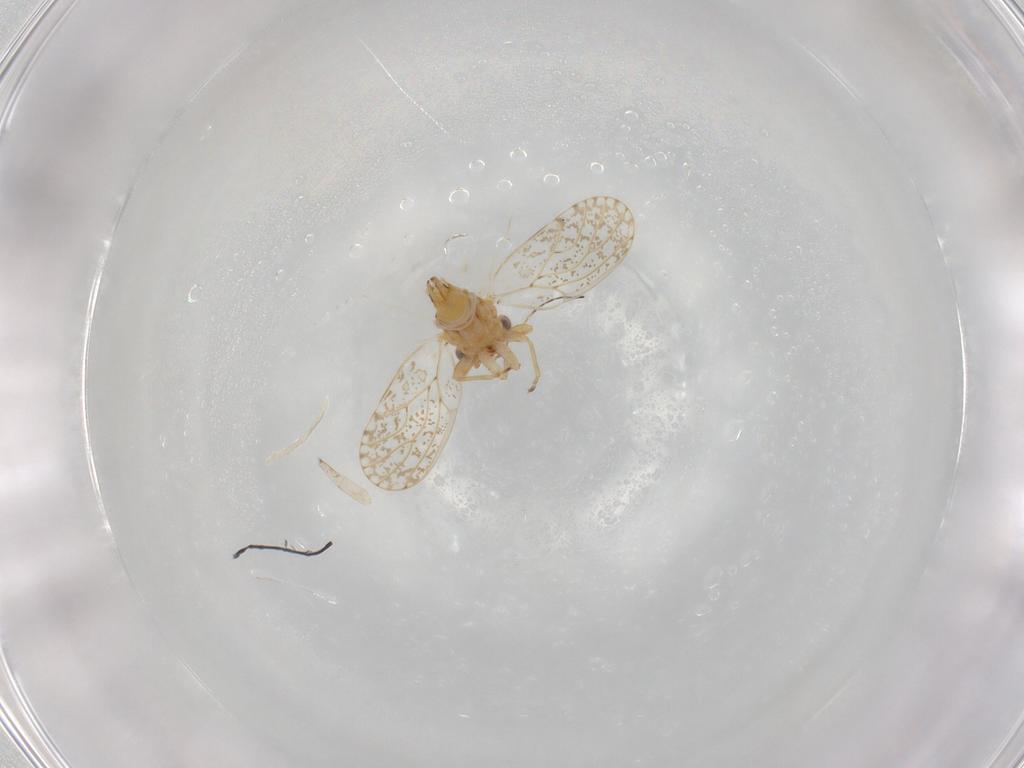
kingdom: Animalia
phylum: Arthropoda
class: Insecta
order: Hemiptera
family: Psyllidae
